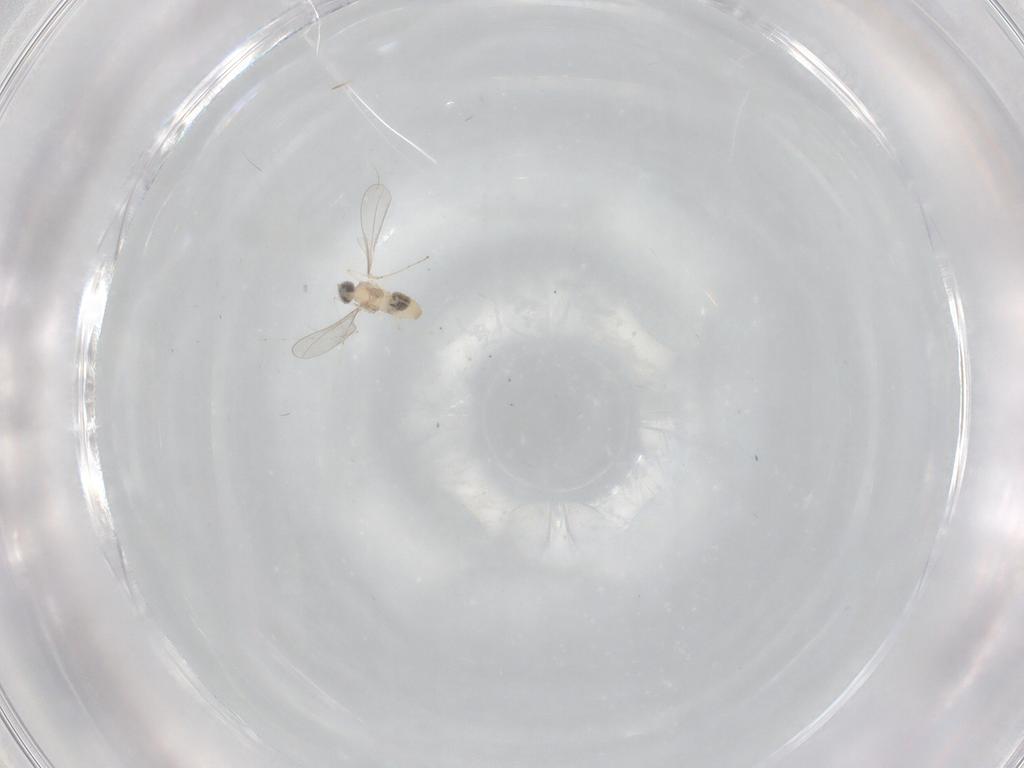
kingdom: Animalia
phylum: Arthropoda
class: Insecta
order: Diptera
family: Cecidomyiidae
